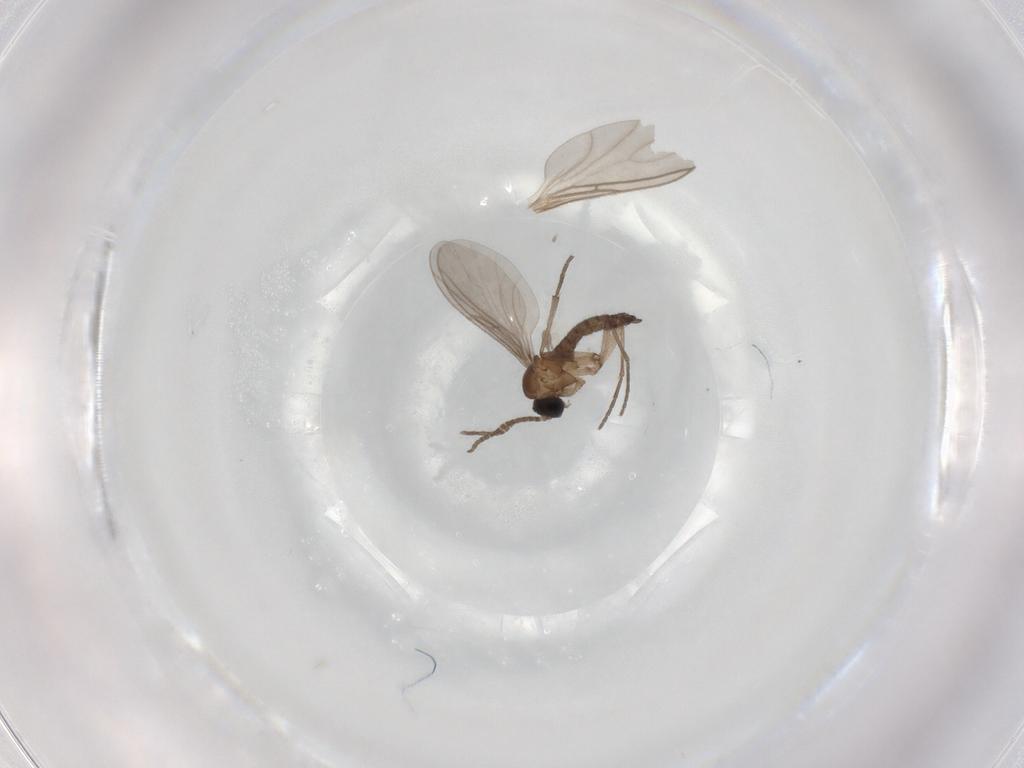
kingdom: Animalia
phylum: Arthropoda
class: Insecta
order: Diptera
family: Sciaridae
